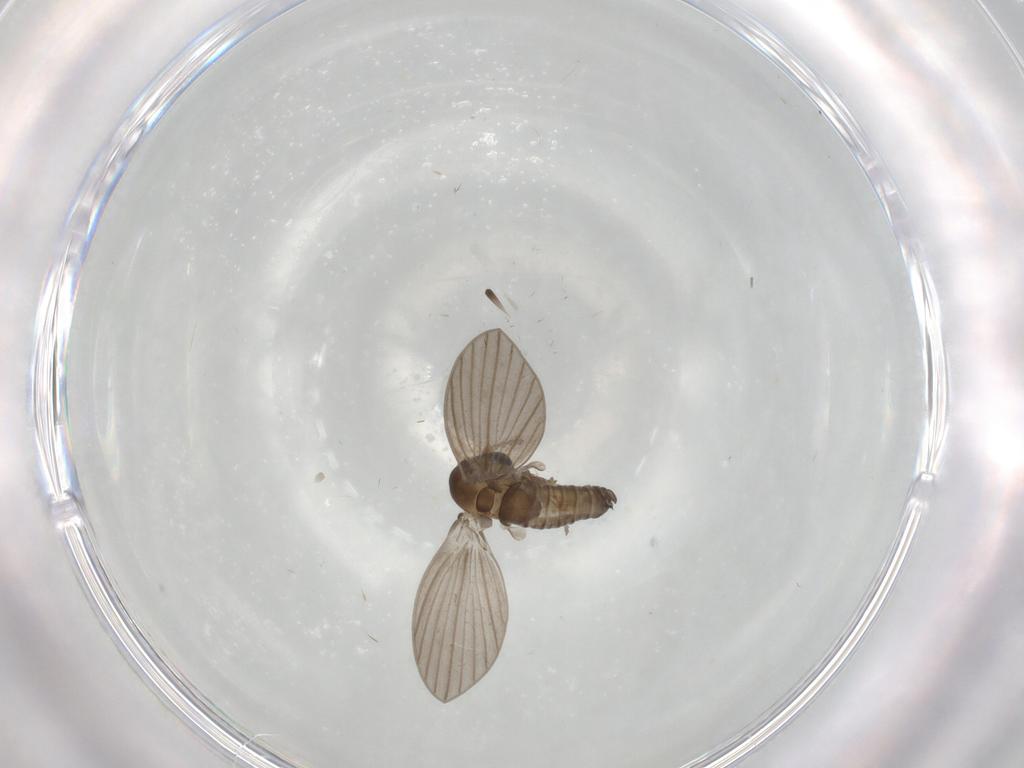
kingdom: Animalia
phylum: Arthropoda
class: Insecta
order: Diptera
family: Psychodidae
